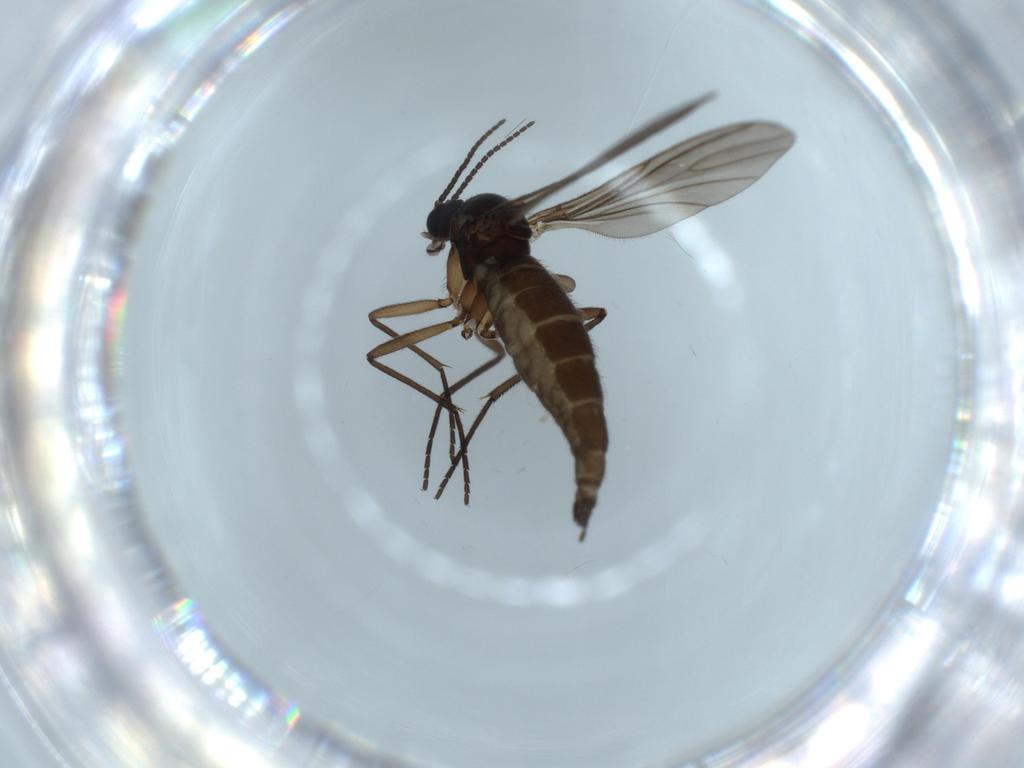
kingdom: Animalia
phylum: Arthropoda
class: Insecta
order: Diptera
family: Sciaridae
